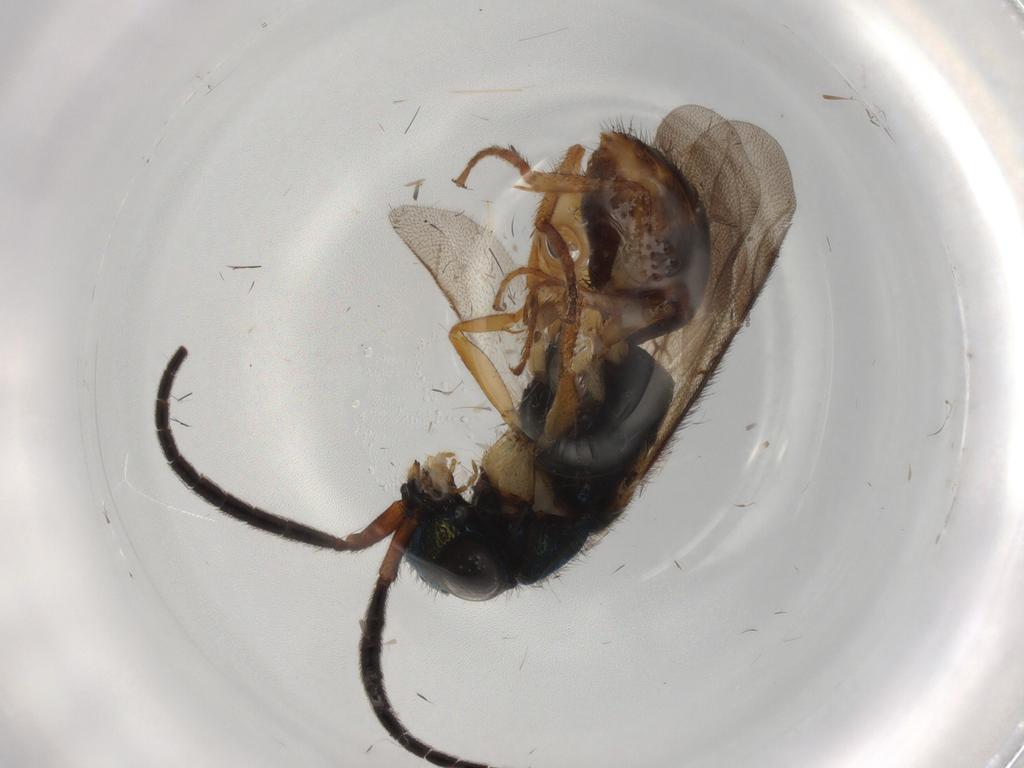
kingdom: Animalia
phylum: Arthropoda
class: Insecta
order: Hymenoptera
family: Chrysididae
